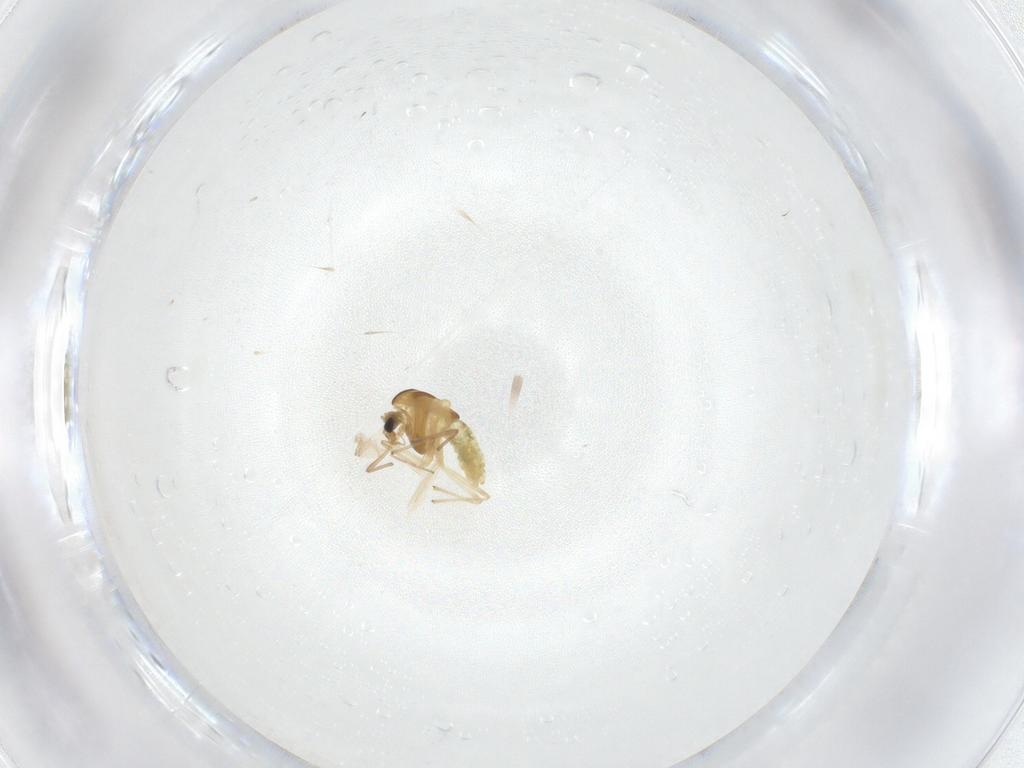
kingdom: Animalia
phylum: Arthropoda
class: Insecta
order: Diptera
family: Chironomidae
